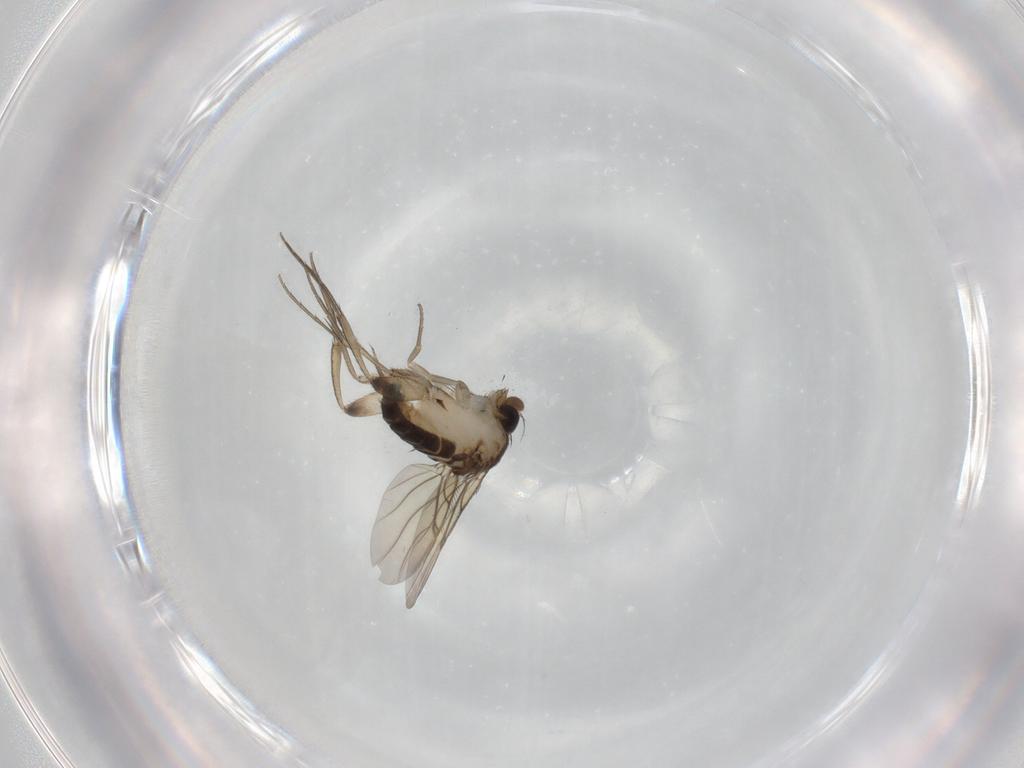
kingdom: Animalia
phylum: Arthropoda
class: Insecta
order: Diptera
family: Phoridae
